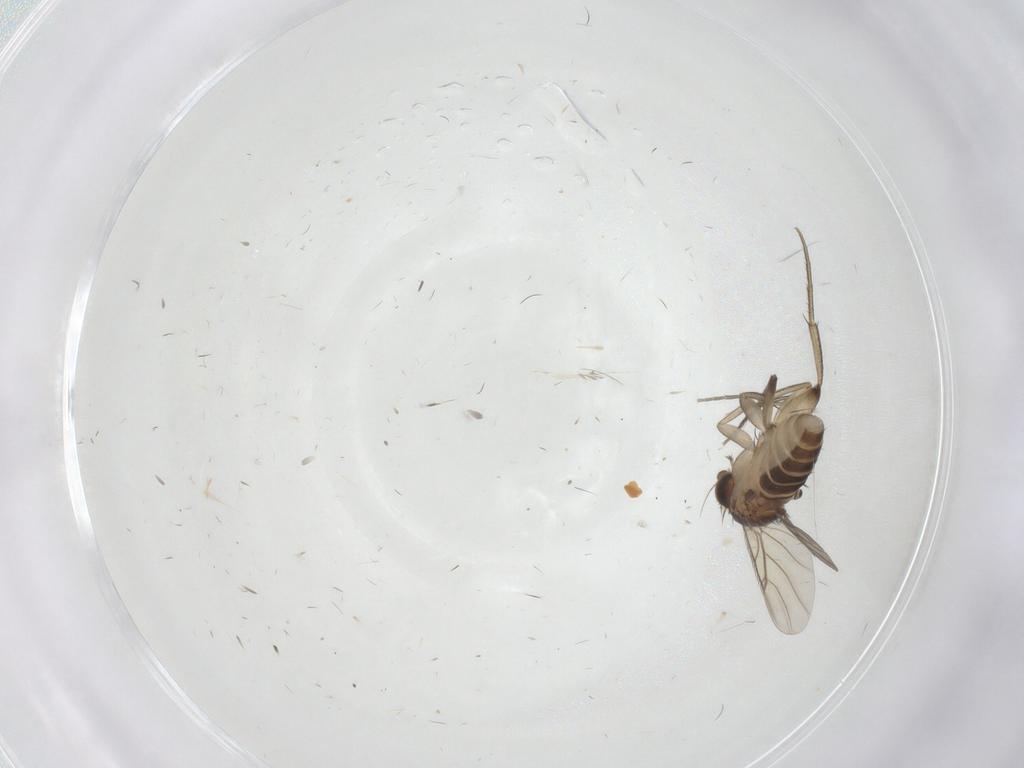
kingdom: Animalia
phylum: Arthropoda
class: Insecta
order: Diptera
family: Sciaridae
